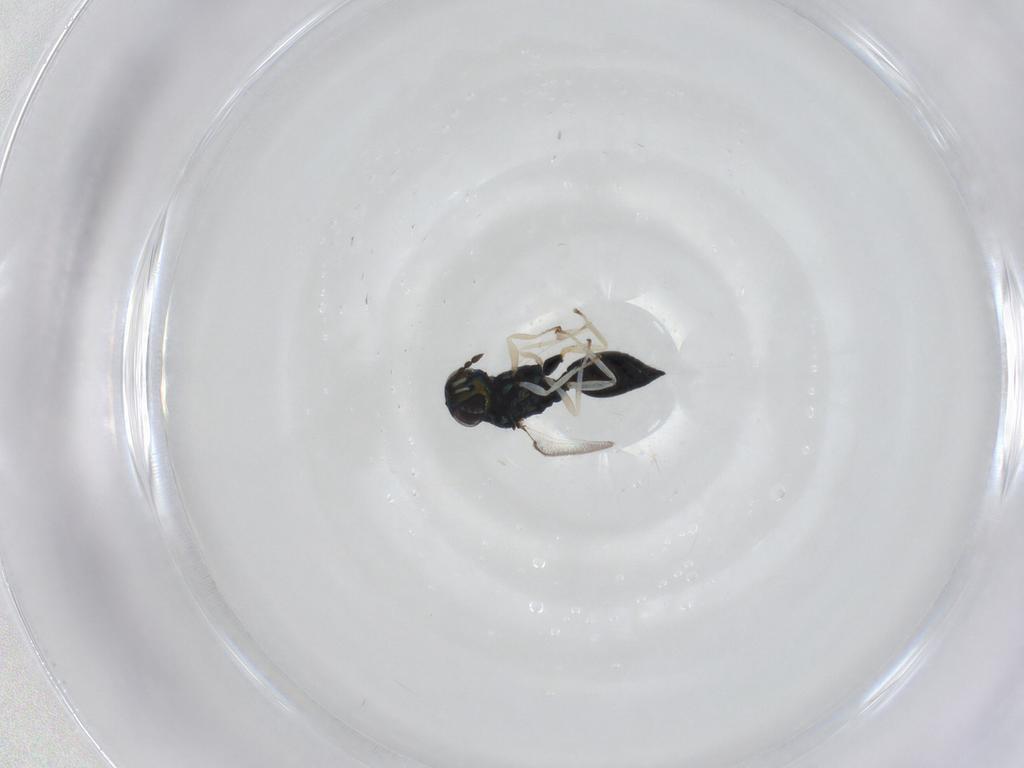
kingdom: Animalia
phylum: Arthropoda
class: Insecta
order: Hymenoptera
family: Eulophidae
